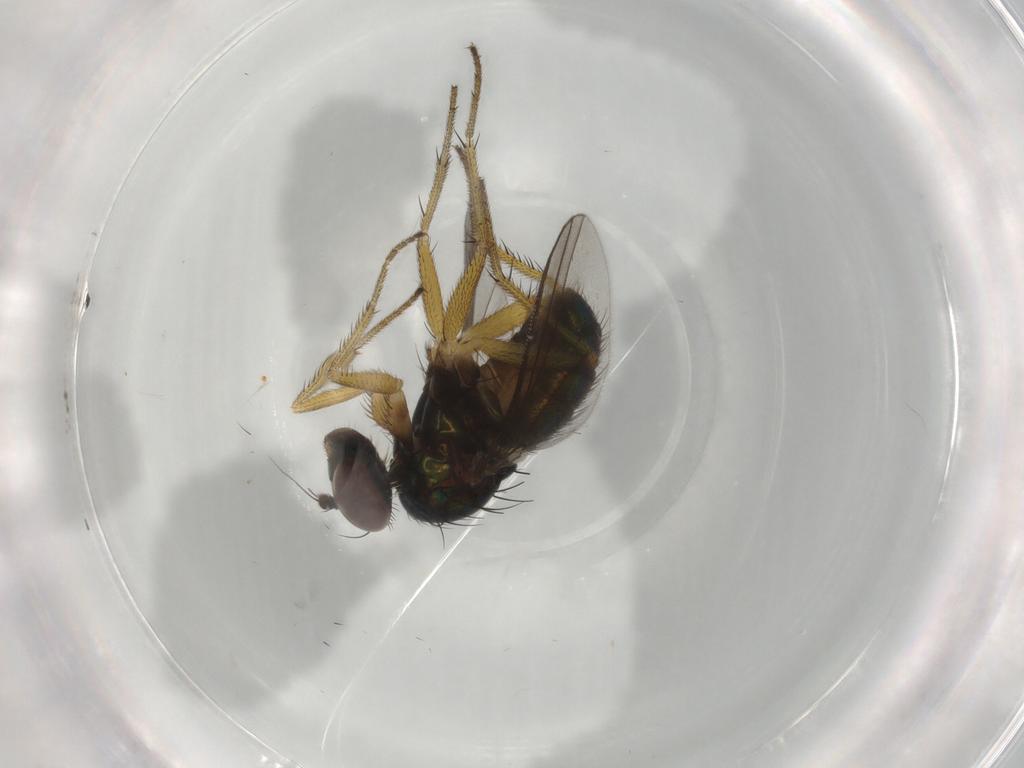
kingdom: Animalia
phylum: Arthropoda
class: Insecta
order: Diptera
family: Dolichopodidae
